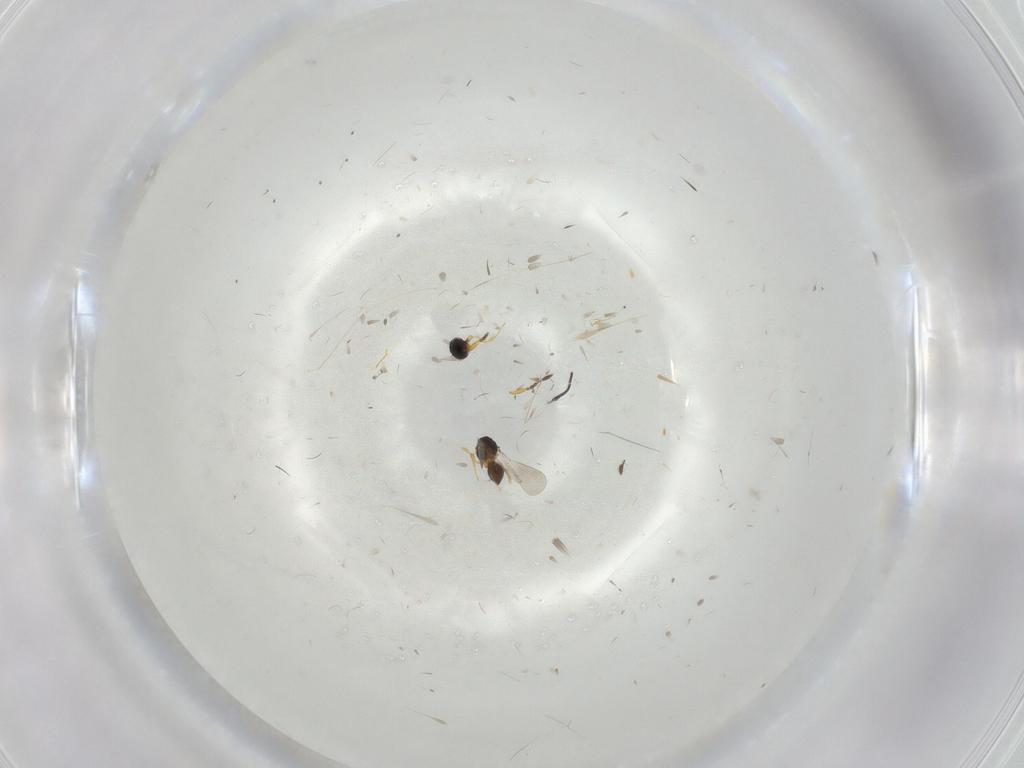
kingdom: Animalia
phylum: Arthropoda
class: Insecta
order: Hymenoptera
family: Platygastridae
